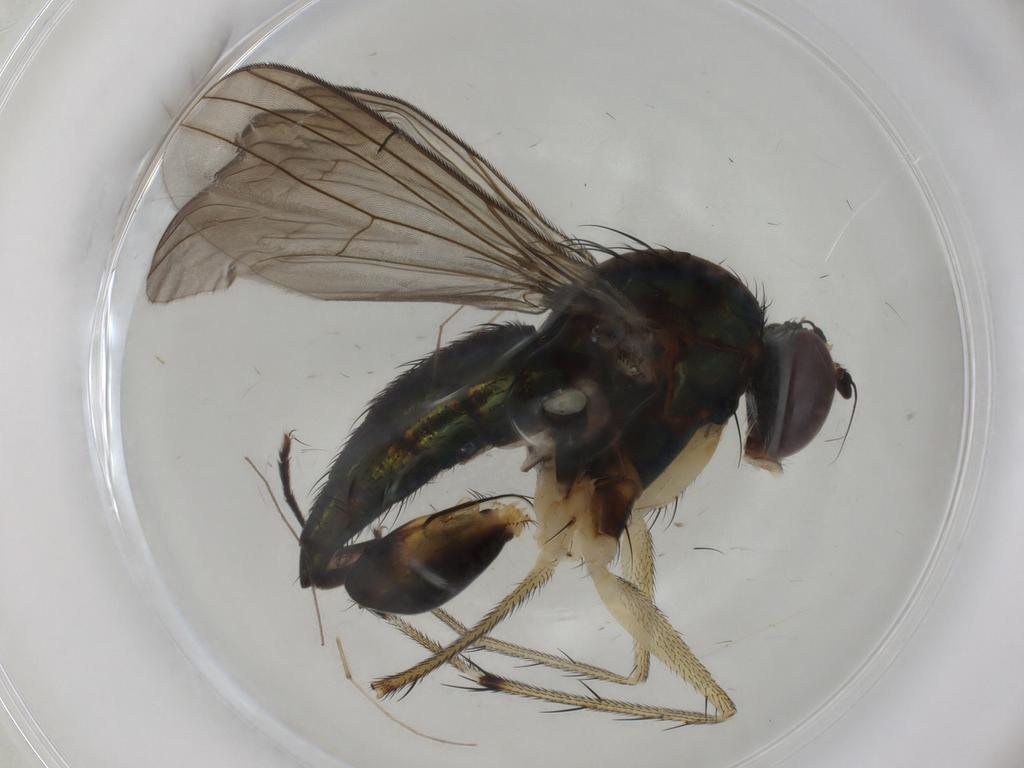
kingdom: Animalia
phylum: Arthropoda
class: Insecta
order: Diptera
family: Dolichopodidae
